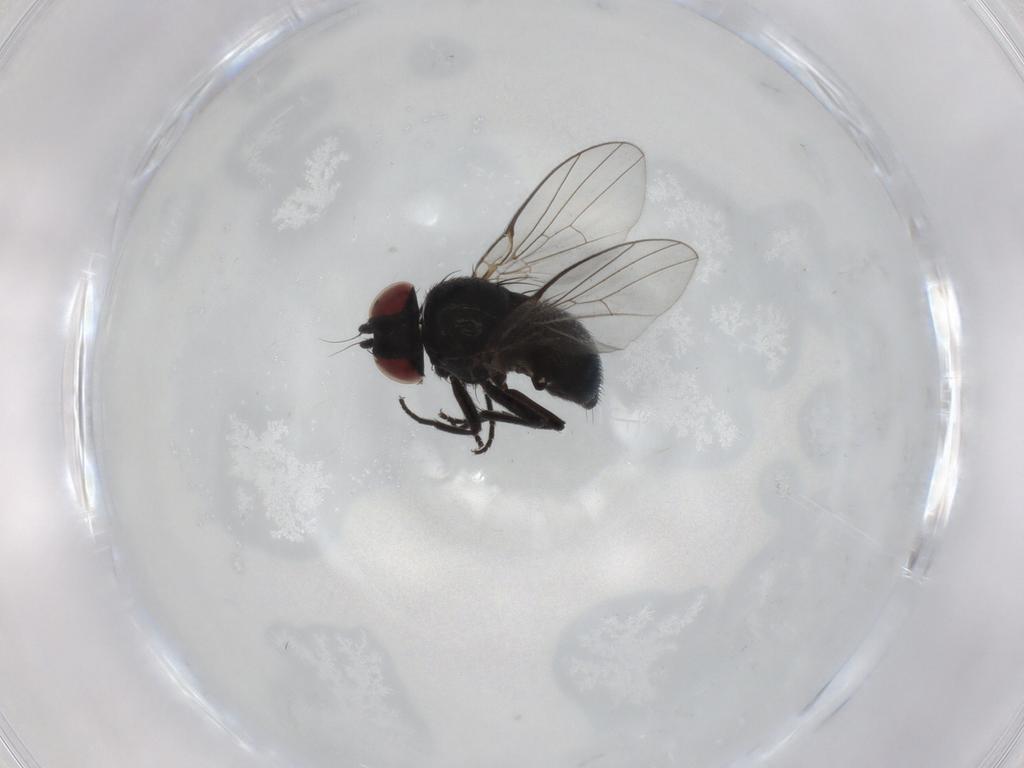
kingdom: Animalia
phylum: Arthropoda
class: Insecta
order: Diptera
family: Agromyzidae
